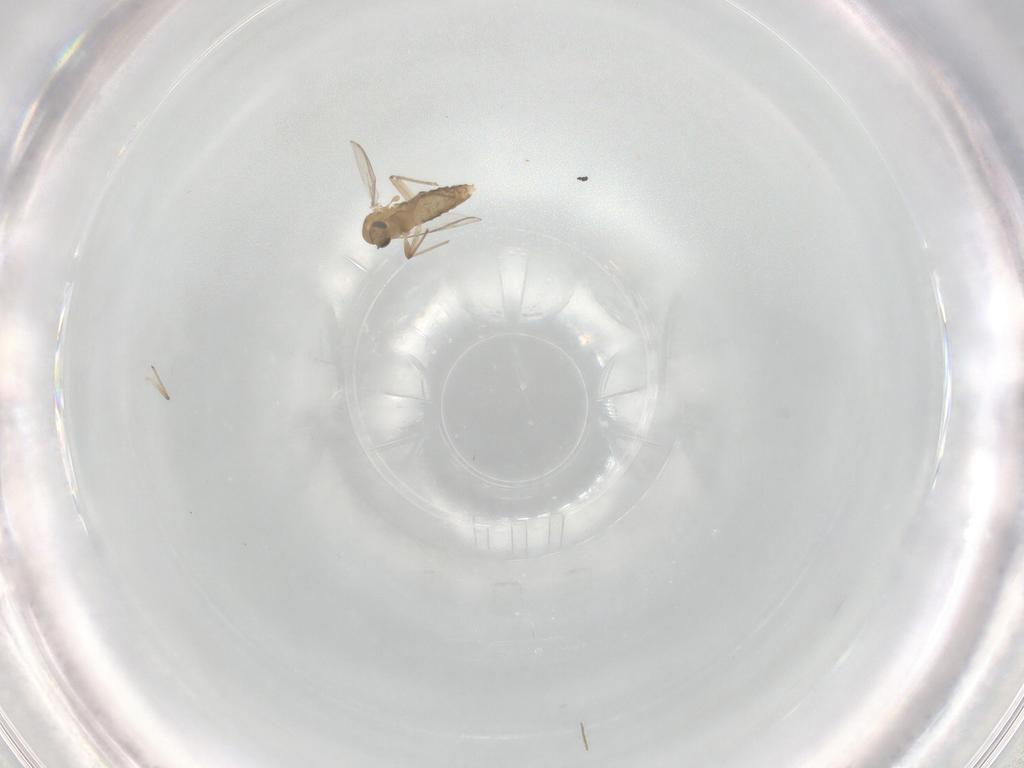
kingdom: Animalia
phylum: Arthropoda
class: Insecta
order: Diptera
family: Chironomidae
